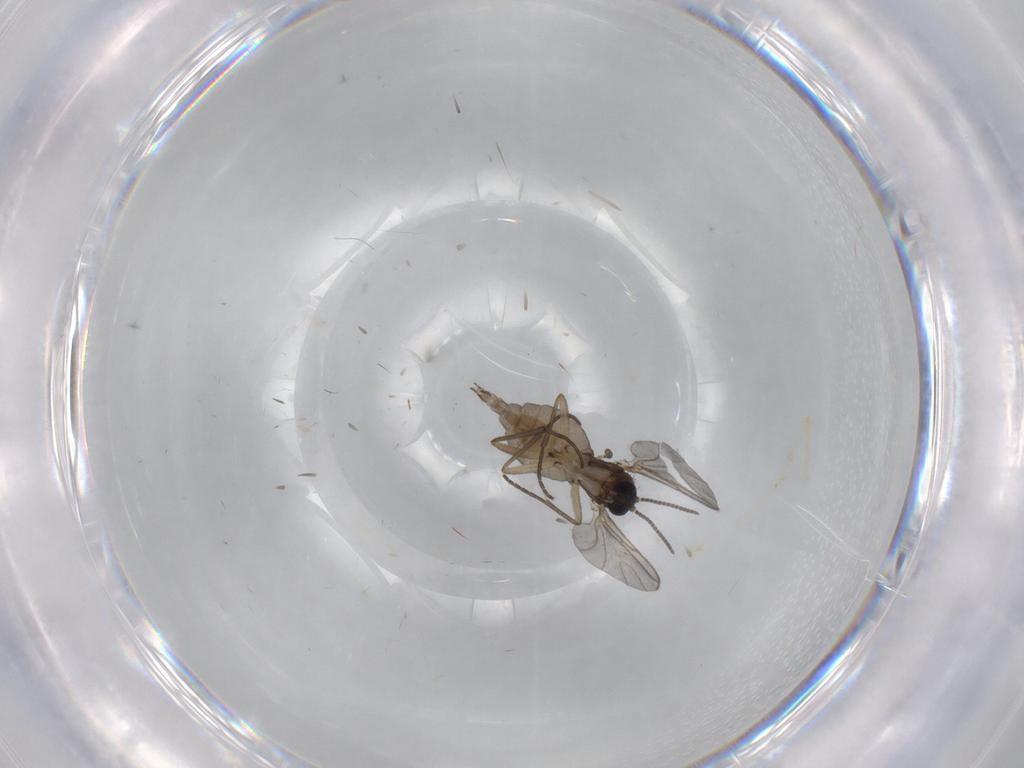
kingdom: Animalia
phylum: Arthropoda
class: Insecta
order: Diptera
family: Sciaridae
